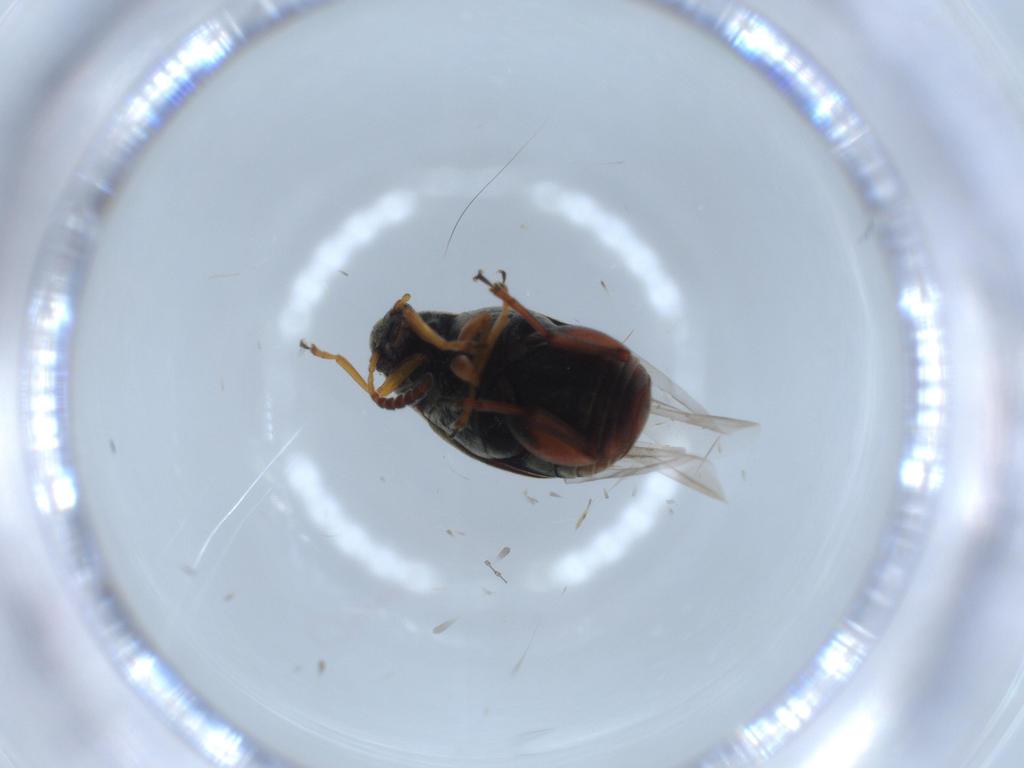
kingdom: Animalia
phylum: Arthropoda
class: Insecta
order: Coleoptera
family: Chrysomelidae
